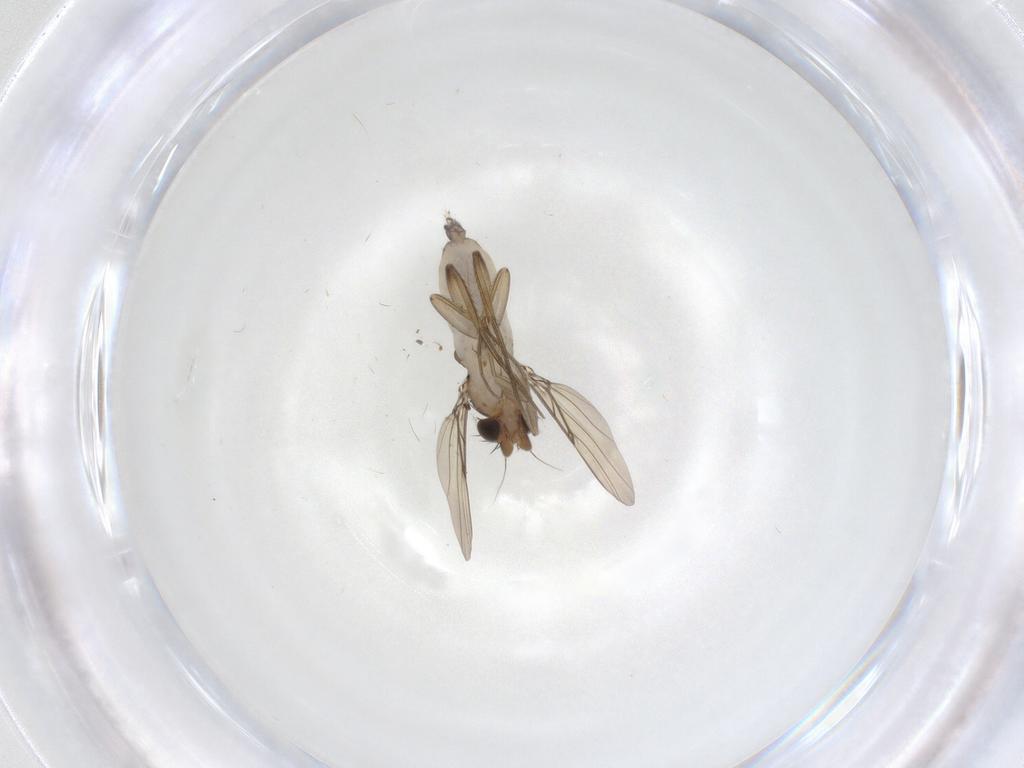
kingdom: Animalia
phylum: Arthropoda
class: Insecta
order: Diptera
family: Phoridae
